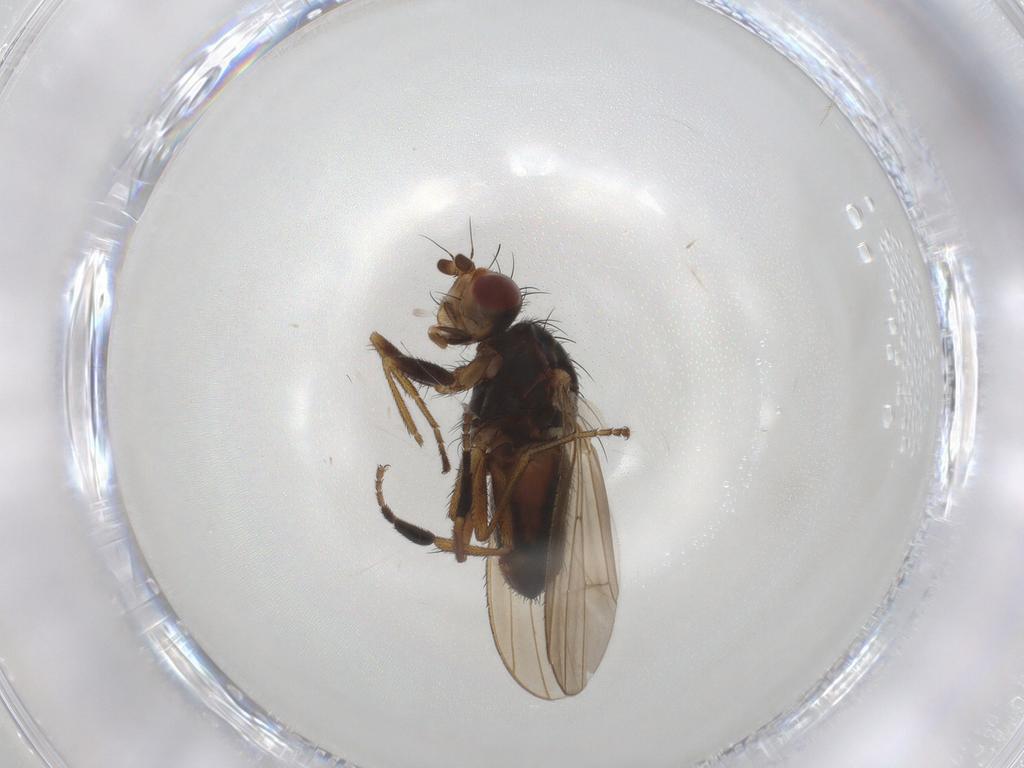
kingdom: Animalia
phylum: Arthropoda
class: Insecta
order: Diptera
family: Heleomyzidae
